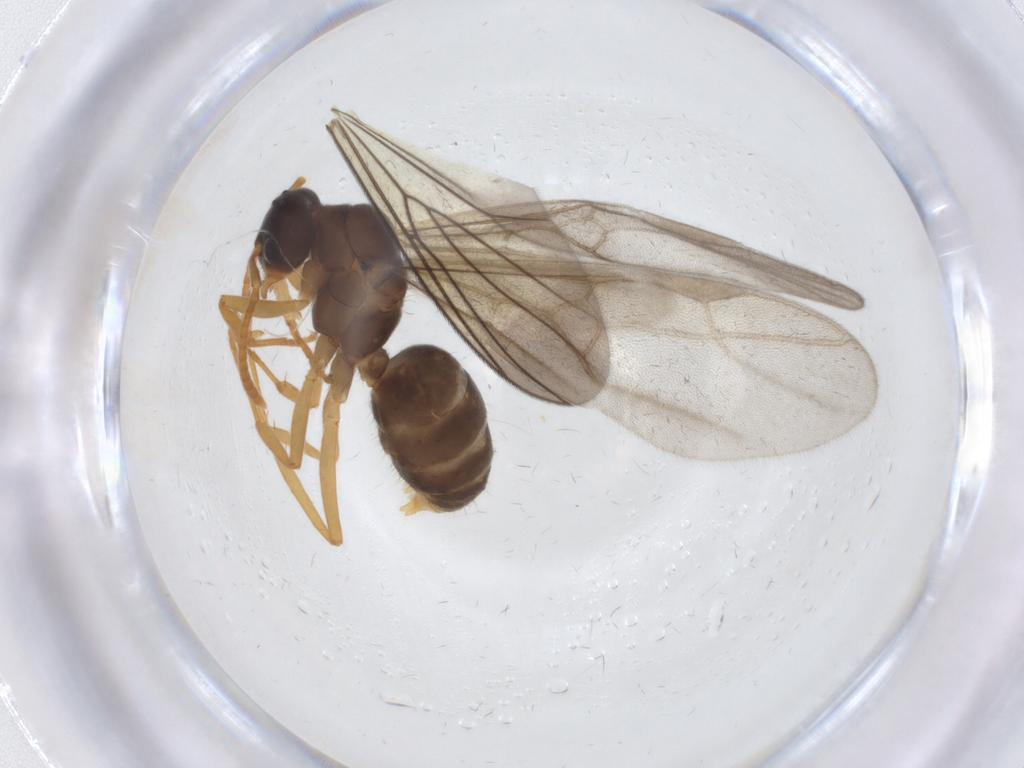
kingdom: Animalia
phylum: Arthropoda
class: Insecta
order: Hymenoptera
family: Formicidae
